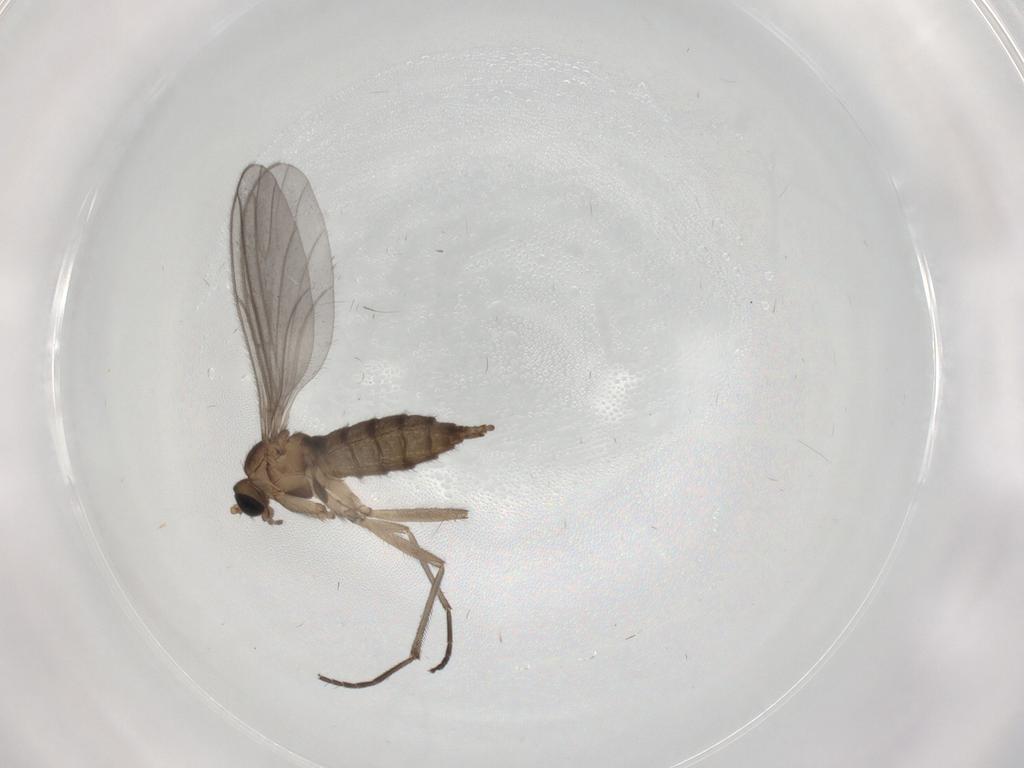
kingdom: Animalia
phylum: Arthropoda
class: Insecta
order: Diptera
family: Sciaridae
